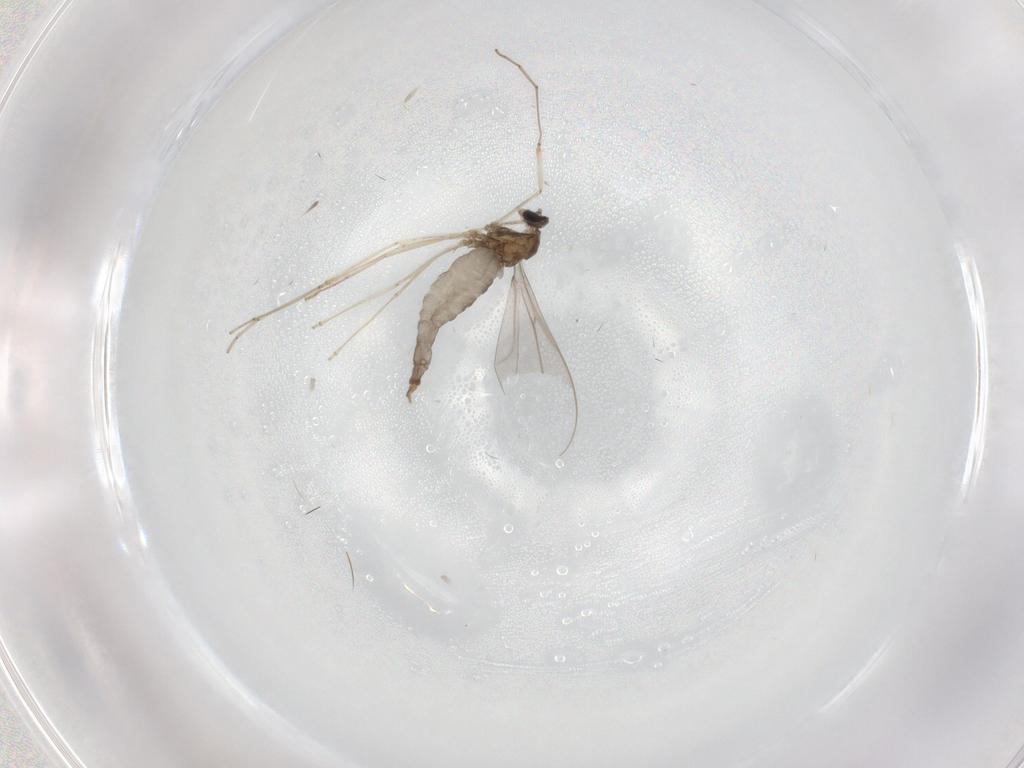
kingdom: Animalia
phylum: Arthropoda
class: Insecta
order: Diptera
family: Cecidomyiidae
